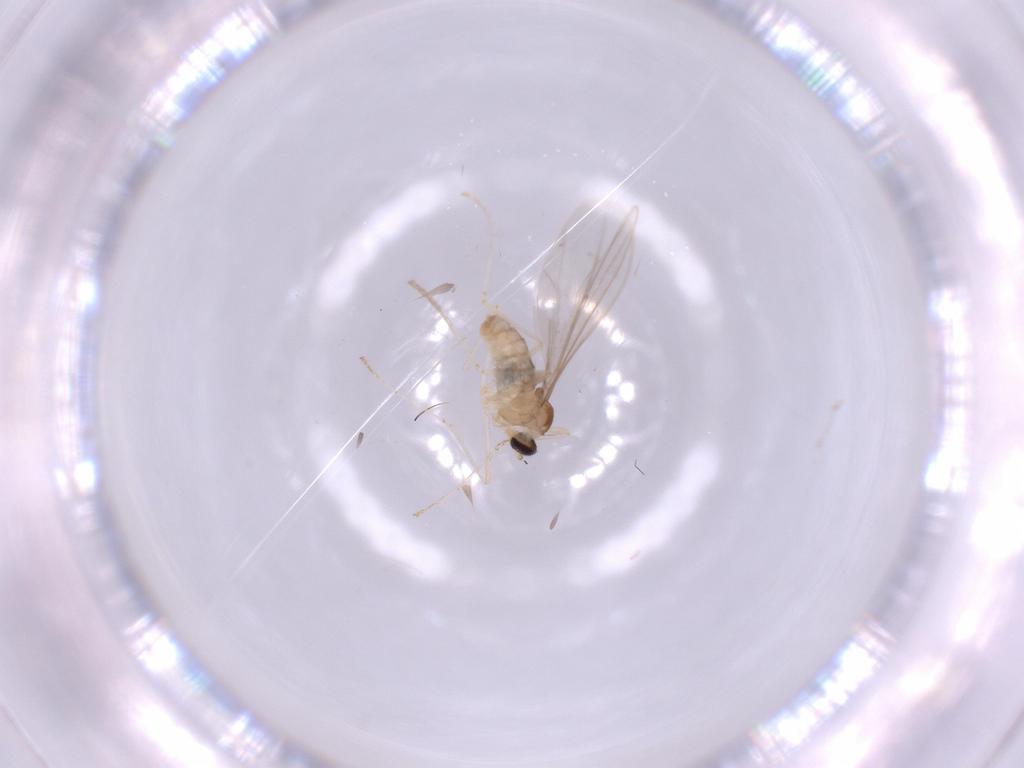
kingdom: Animalia
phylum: Arthropoda
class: Insecta
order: Diptera
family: Cecidomyiidae
